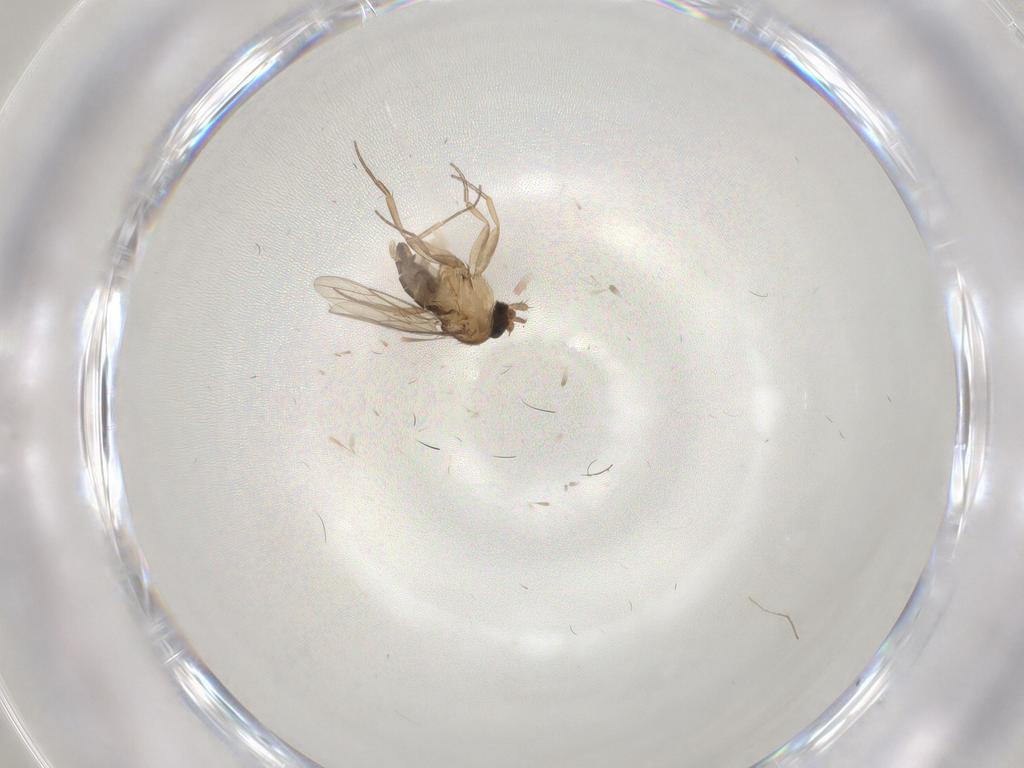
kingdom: Animalia
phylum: Arthropoda
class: Insecta
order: Diptera
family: Phoridae
